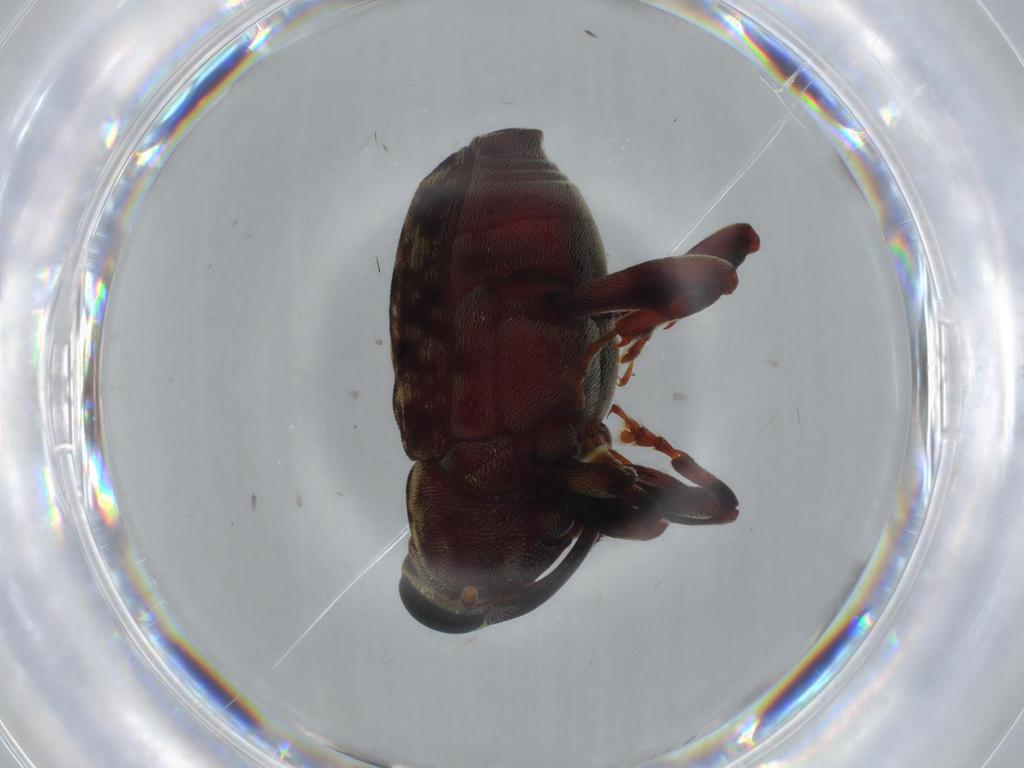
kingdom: Animalia
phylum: Arthropoda
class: Insecta
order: Coleoptera
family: Curculionidae
